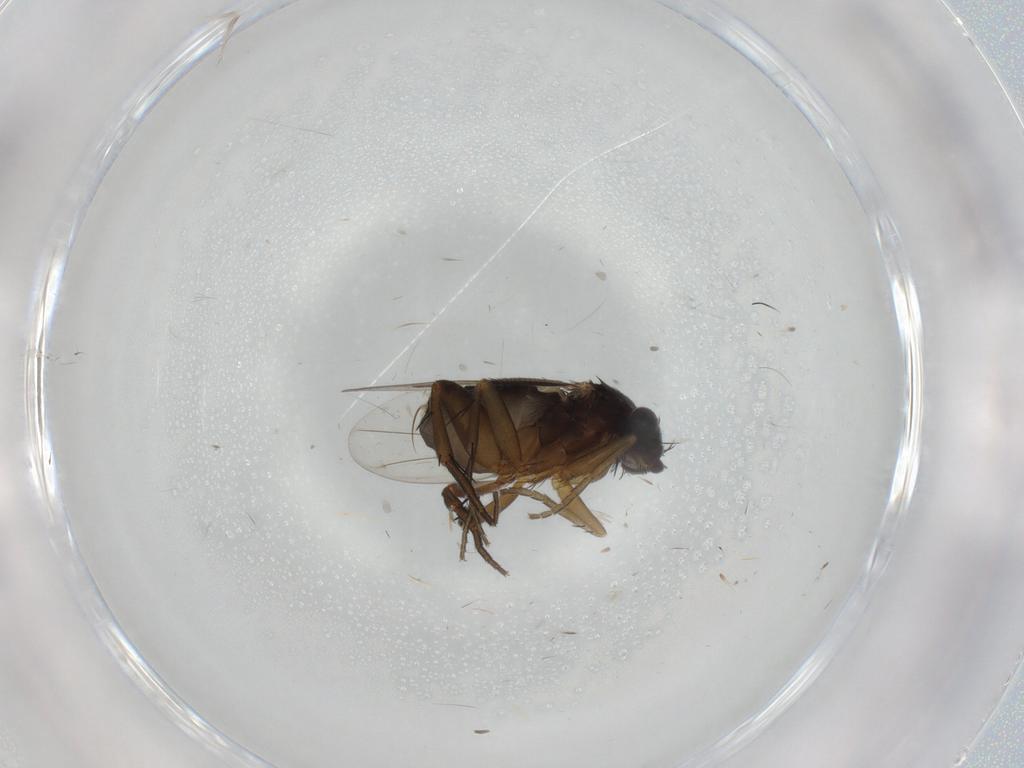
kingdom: Animalia
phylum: Arthropoda
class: Insecta
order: Diptera
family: Phoridae
